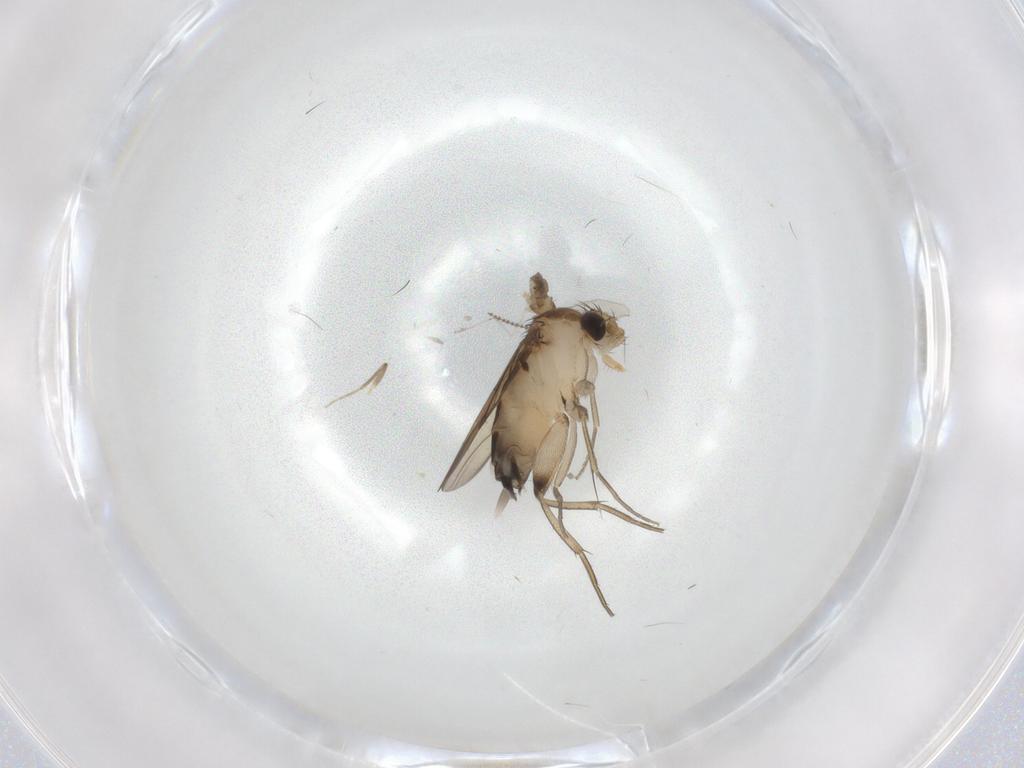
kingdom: Animalia
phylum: Arthropoda
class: Insecta
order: Diptera
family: Phoridae
